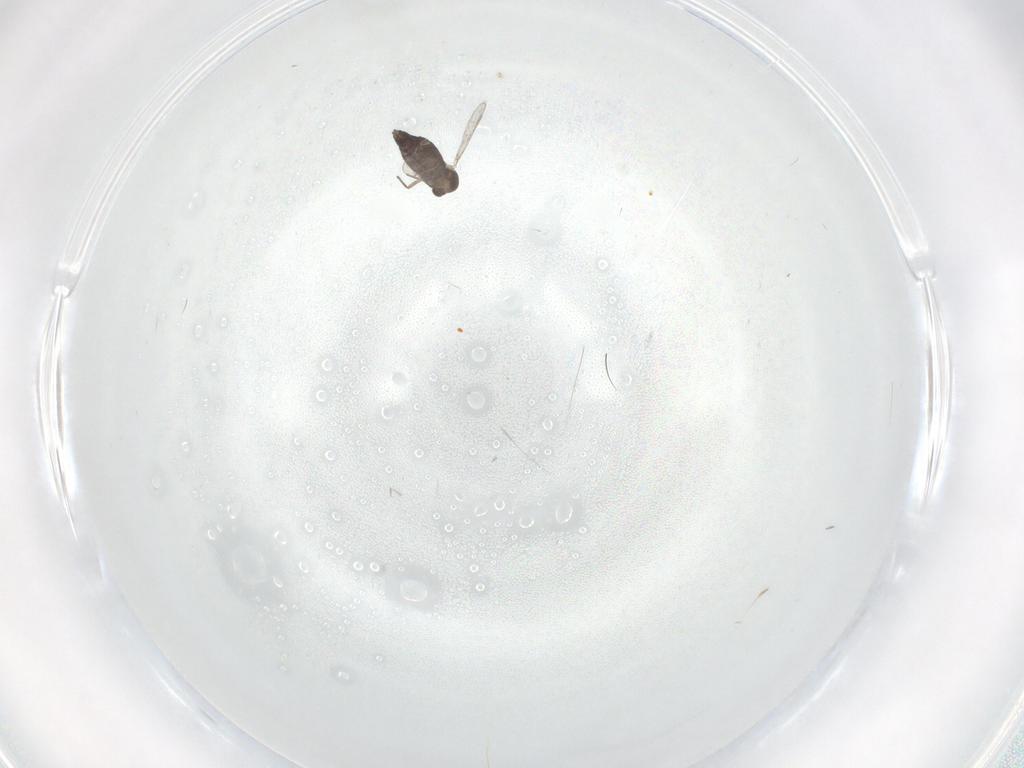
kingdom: Animalia
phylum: Arthropoda
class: Insecta
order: Diptera
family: Chironomidae
